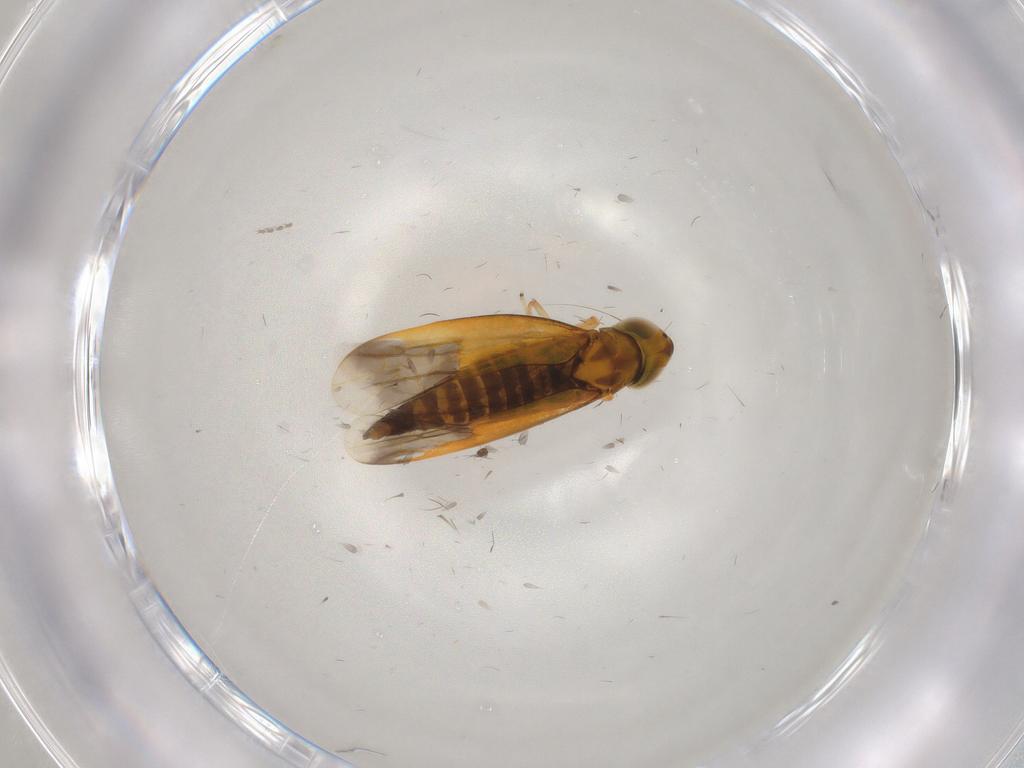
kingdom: Animalia
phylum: Arthropoda
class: Insecta
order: Hemiptera
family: Cicadellidae
